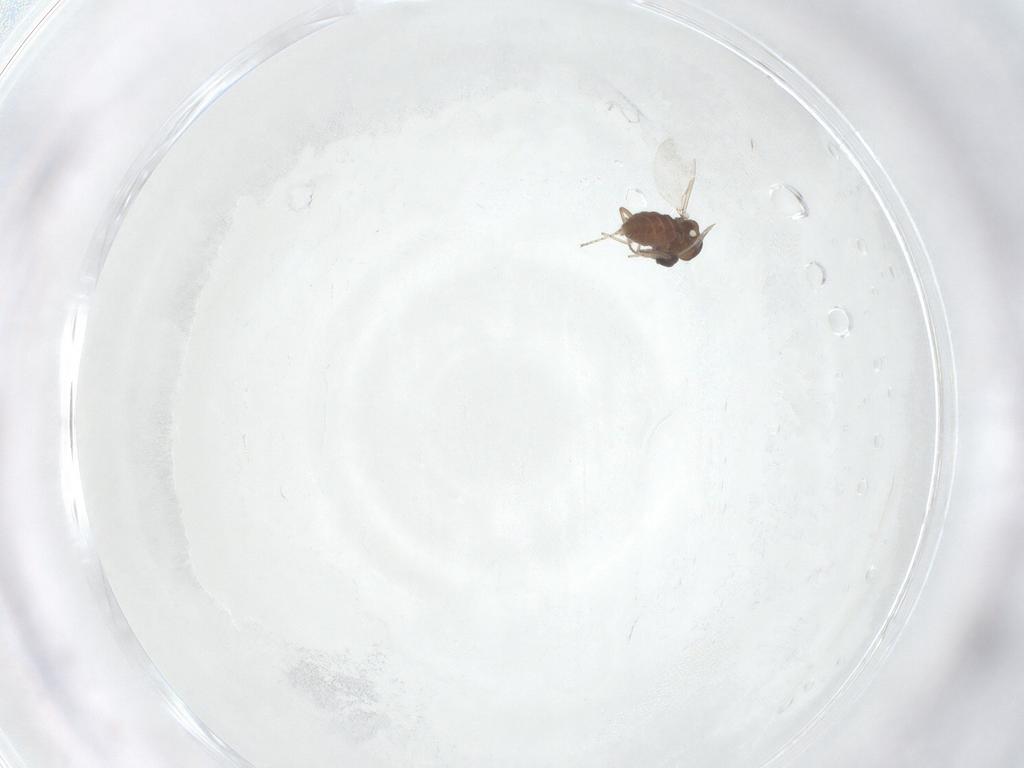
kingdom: Animalia
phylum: Arthropoda
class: Insecta
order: Diptera
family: Ceratopogonidae
